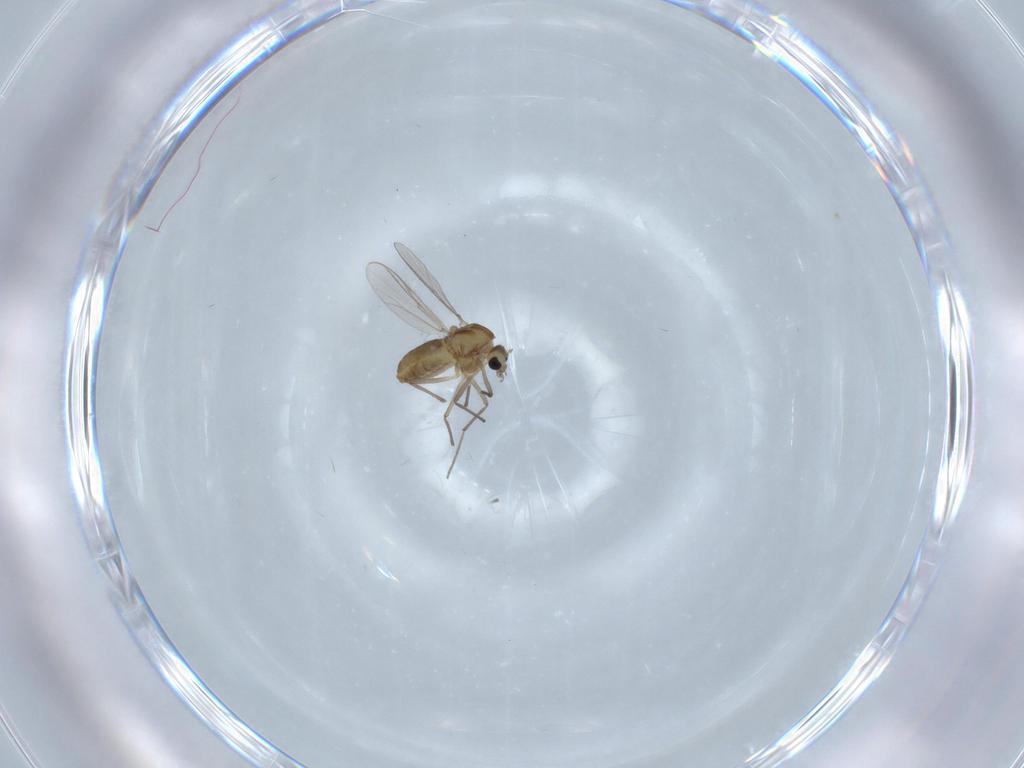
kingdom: Animalia
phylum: Arthropoda
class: Insecta
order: Diptera
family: Chironomidae
